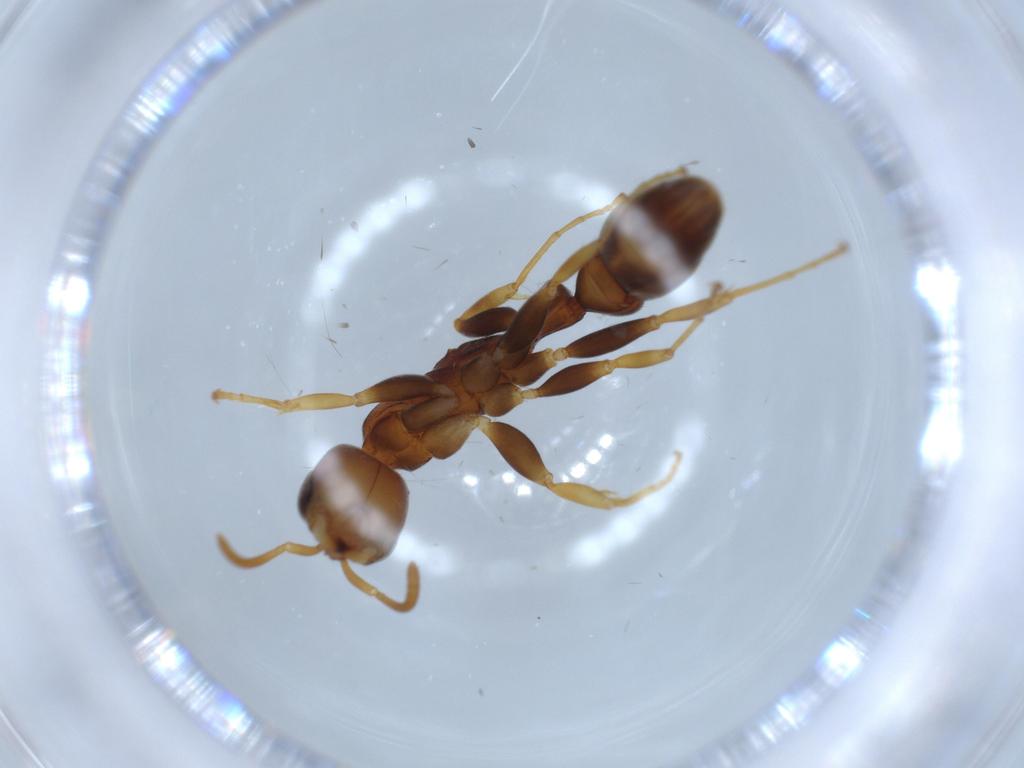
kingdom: Animalia
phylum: Arthropoda
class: Insecta
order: Hymenoptera
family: Formicidae
